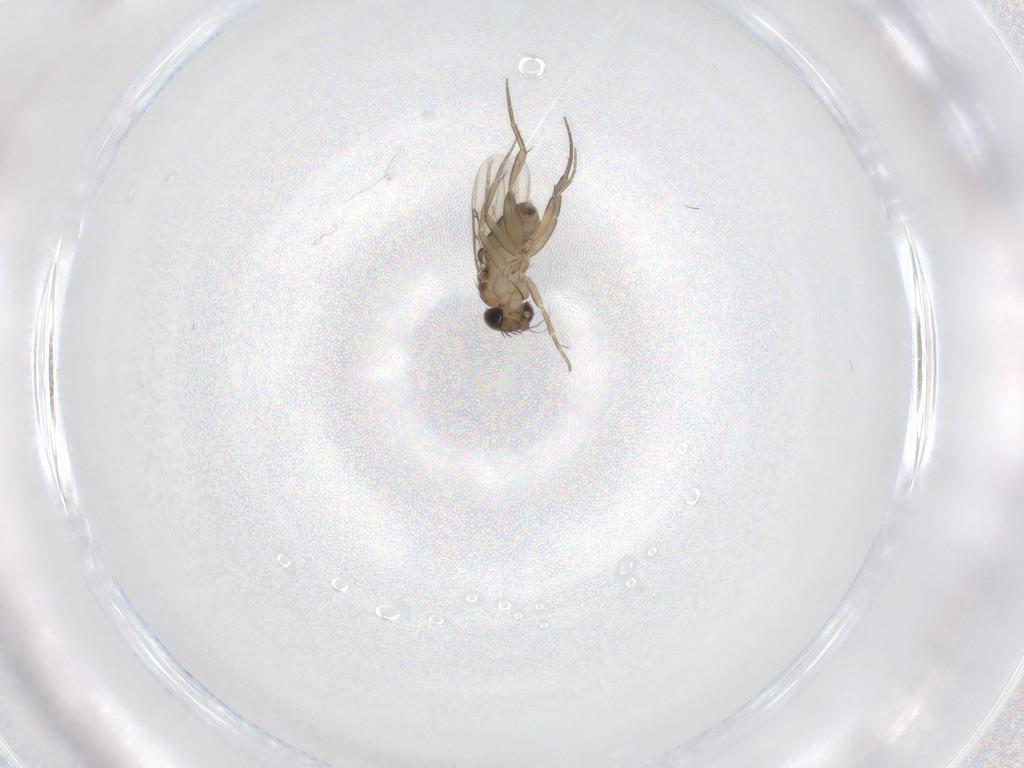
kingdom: Animalia
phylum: Arthropoda
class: Insecta
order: Diptera
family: Phoridae
